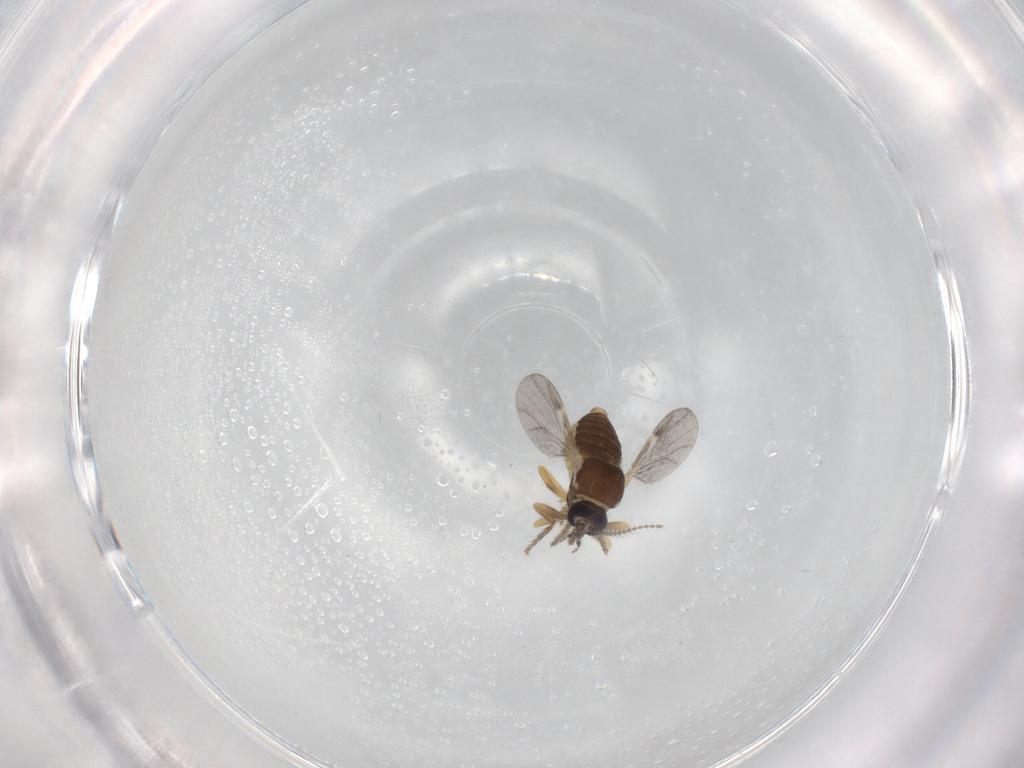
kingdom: Animalia
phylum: Arthropoda
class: Insecta
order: Diptera
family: Ceratopogonidae
